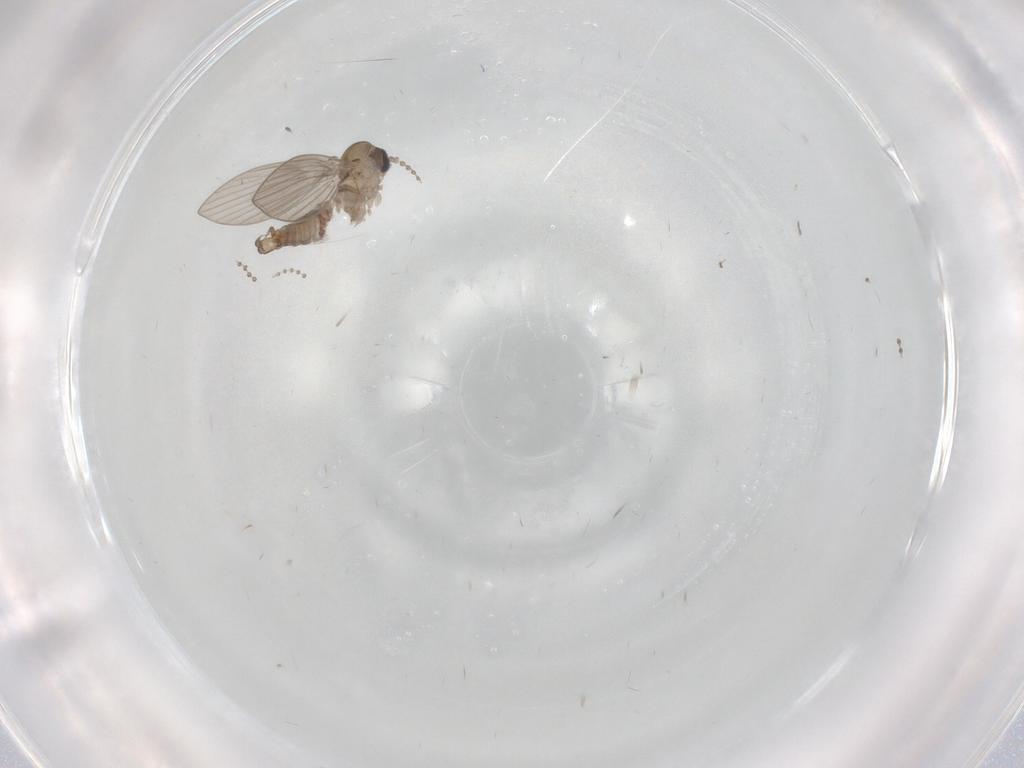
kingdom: Animalia
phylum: Arthropoda
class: Insecta
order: Diptera
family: Psychodidae
